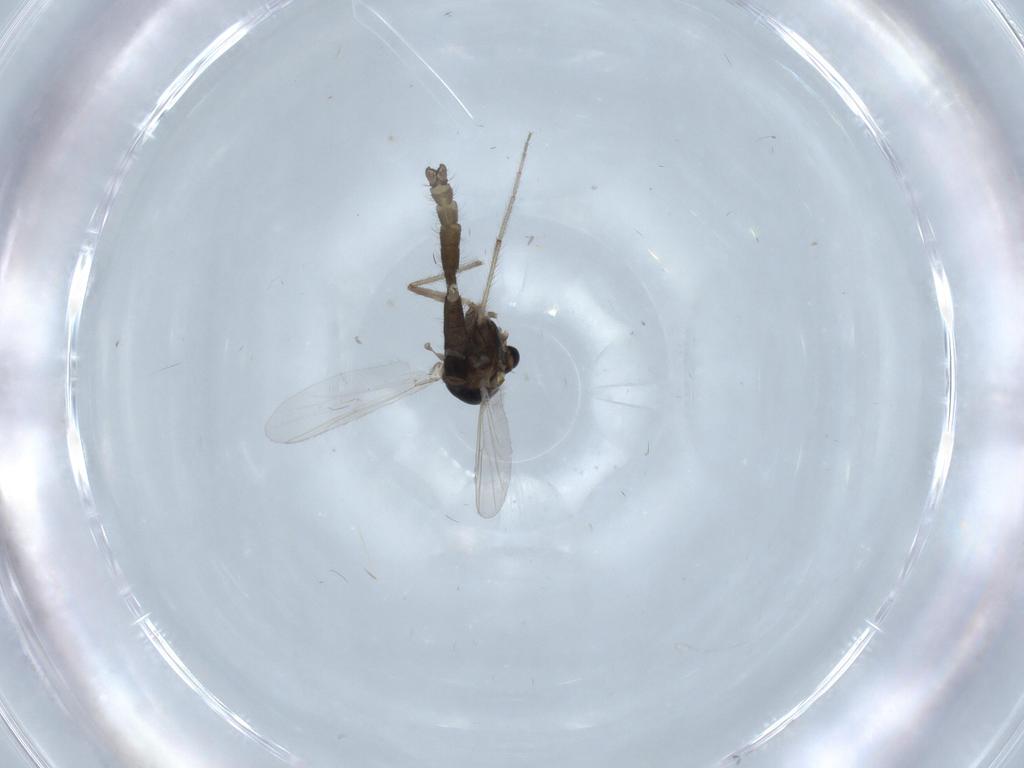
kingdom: Animalia
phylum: Arthropoda
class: Insecta
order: Diptera
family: Chironomidae
